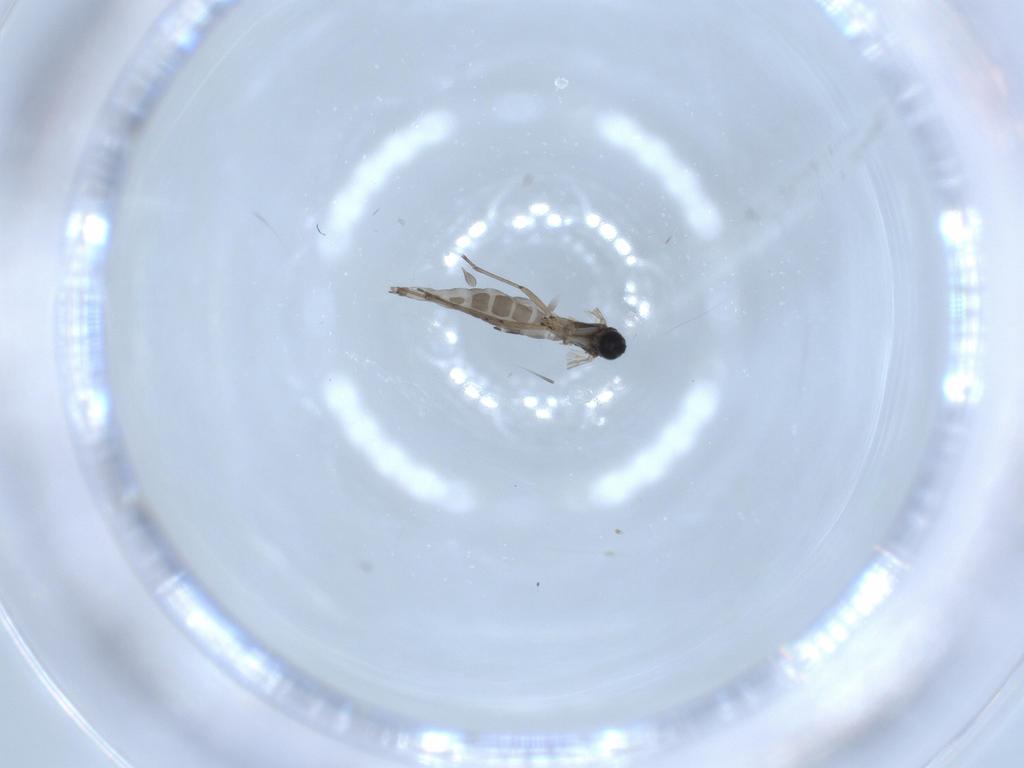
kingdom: Animalia
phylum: Arthropoda
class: Insecta
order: Diptera
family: Sciaridae
